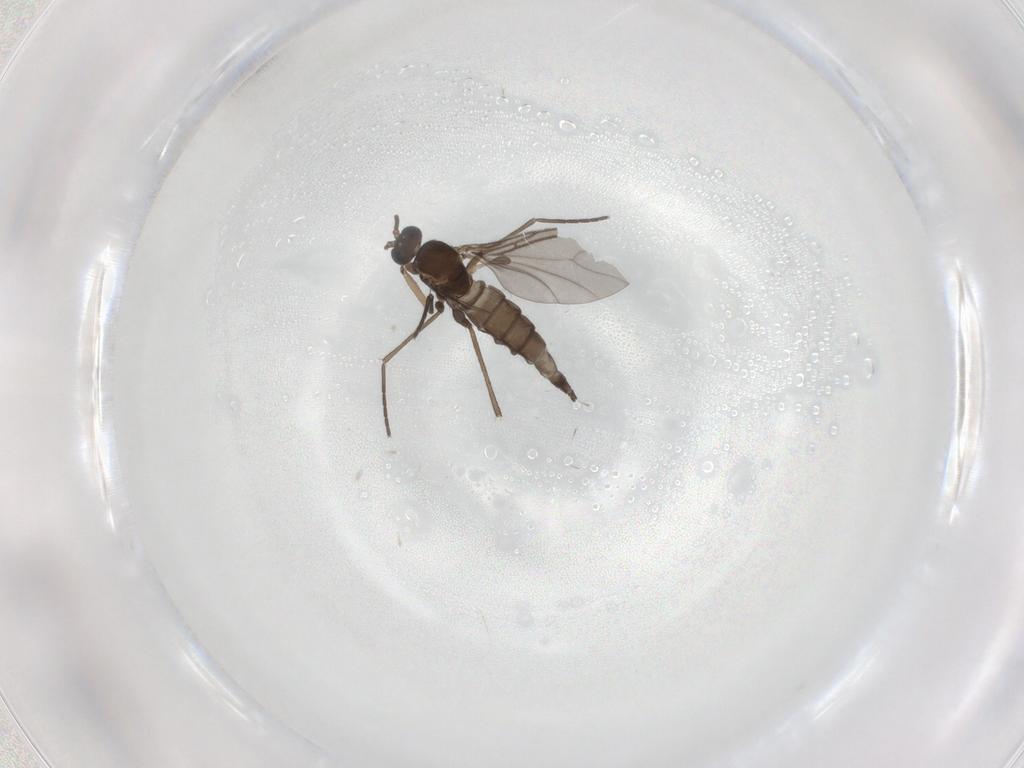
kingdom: Animalia
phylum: Arthropoda
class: Insecta
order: Diptera
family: Sciaridae
